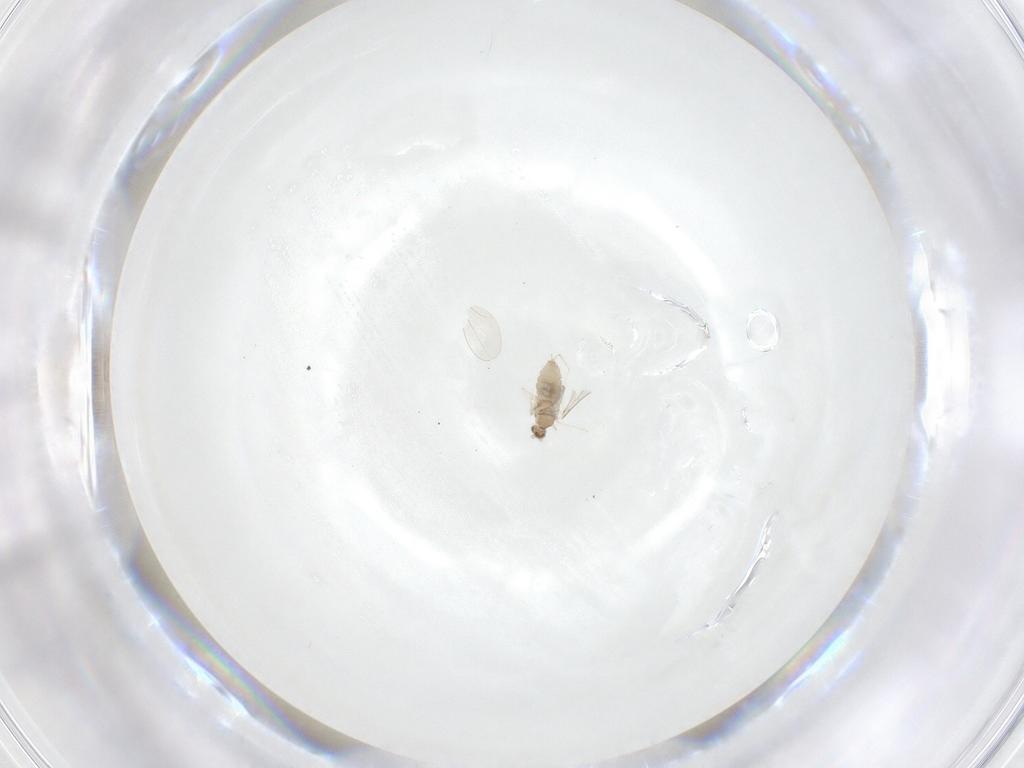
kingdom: Animalia
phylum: Arthropoda
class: Insecta
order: Diptera
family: Cecidomyiidae
